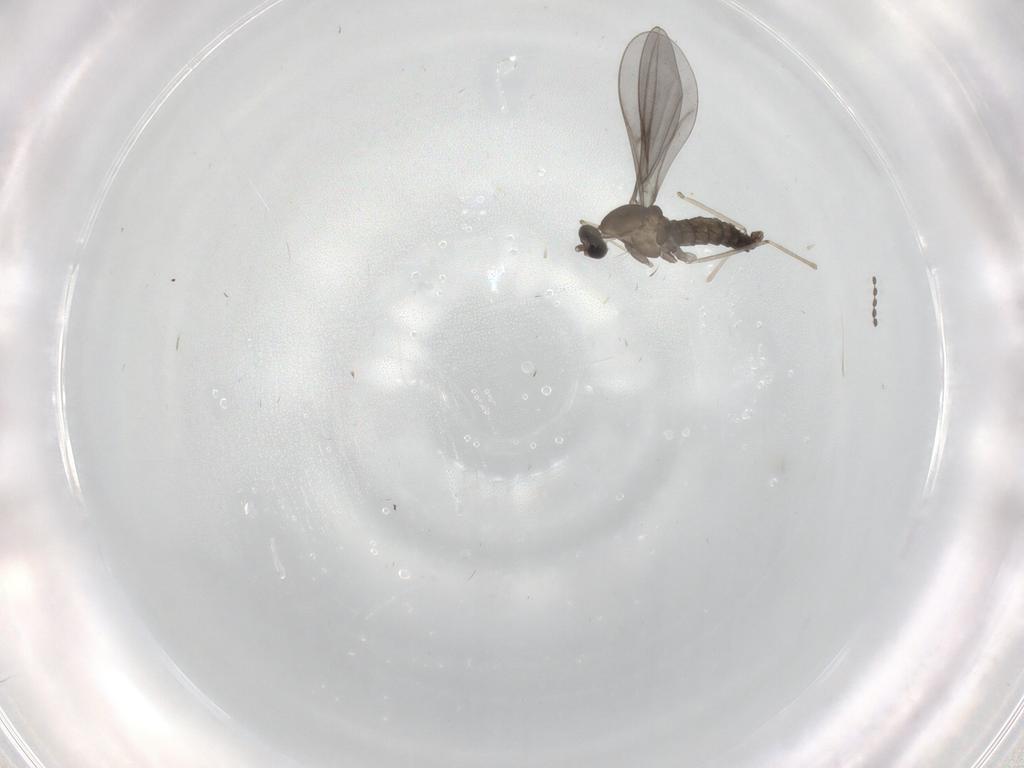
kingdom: Animalia
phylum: Arthropoda
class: Insecta
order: Diptera
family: Cecidomyiidae
